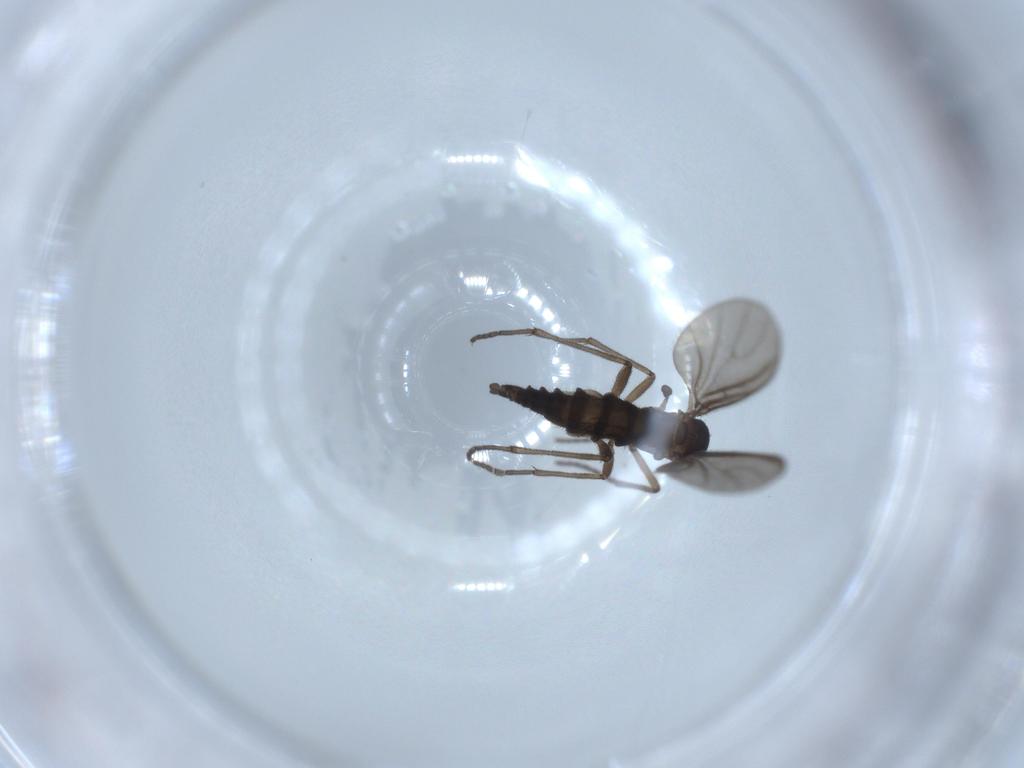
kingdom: Animalia
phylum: Arthropoda
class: Insecta
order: Diptera
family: Sciaridae
